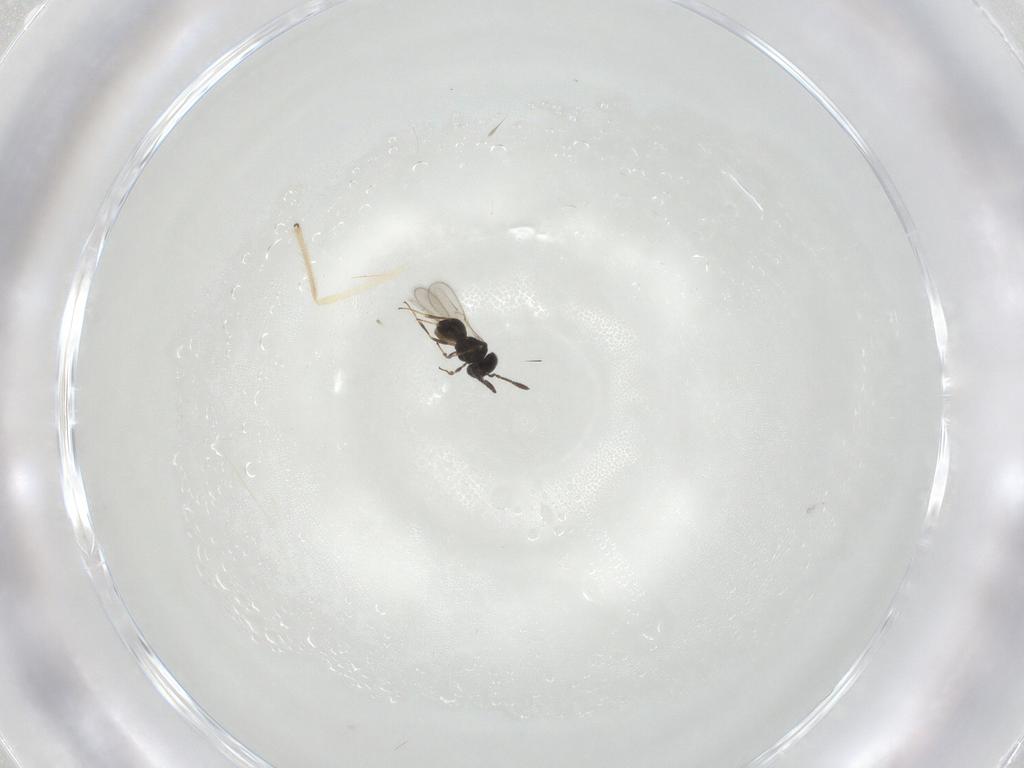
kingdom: Animalia
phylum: Arthropoda
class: Insecta
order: Hymenoptera
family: Scelionidae
